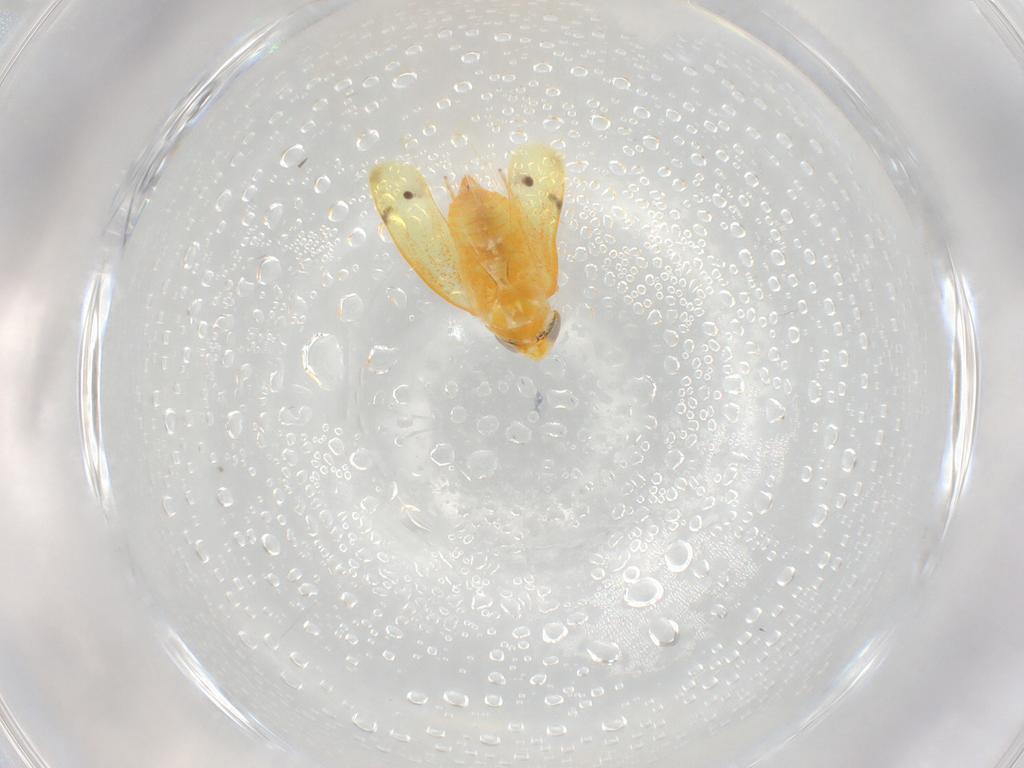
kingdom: Animalia
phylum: Arthropoda
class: Insecta
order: Hemiptera
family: Cicadellidae
